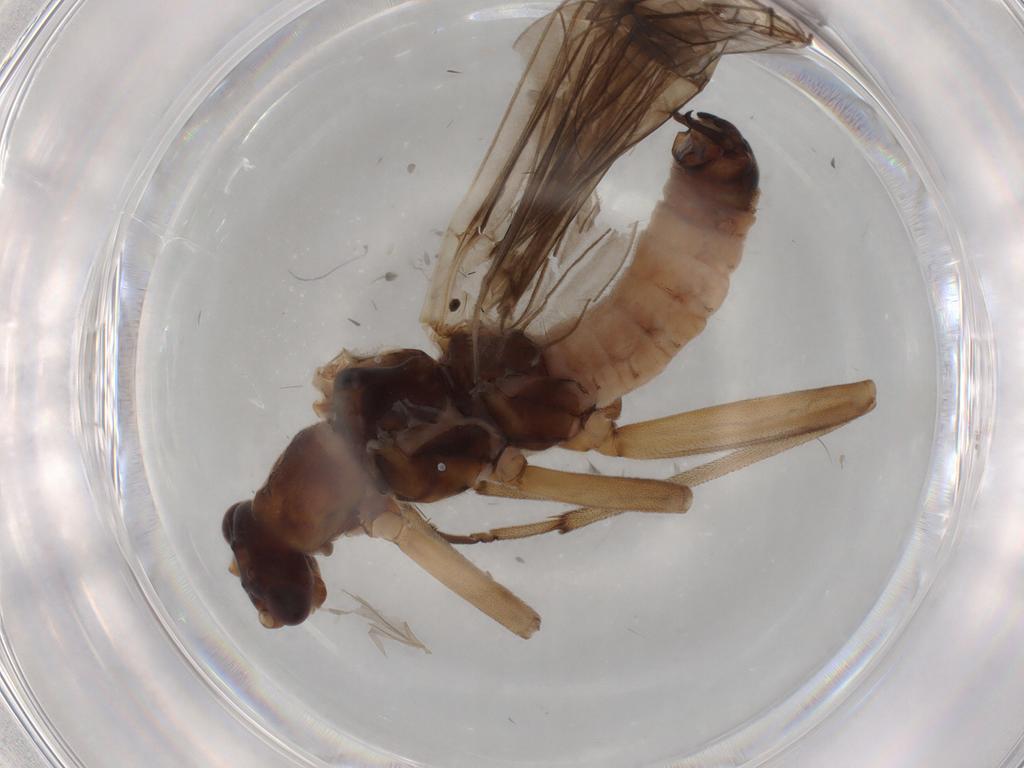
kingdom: Animalia
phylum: Arthropoda
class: Insecta
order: Plecoptera
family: Nemouridae
